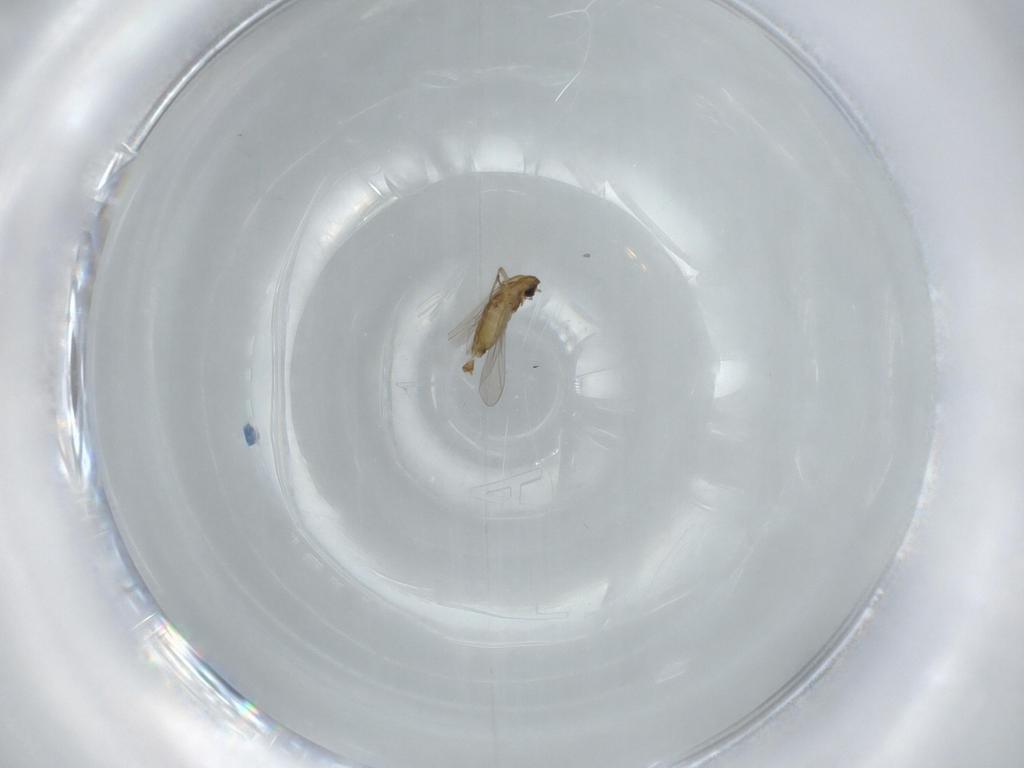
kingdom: Animalia
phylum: Arthropoda
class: Insecta
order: Diptera
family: Chironomidae
